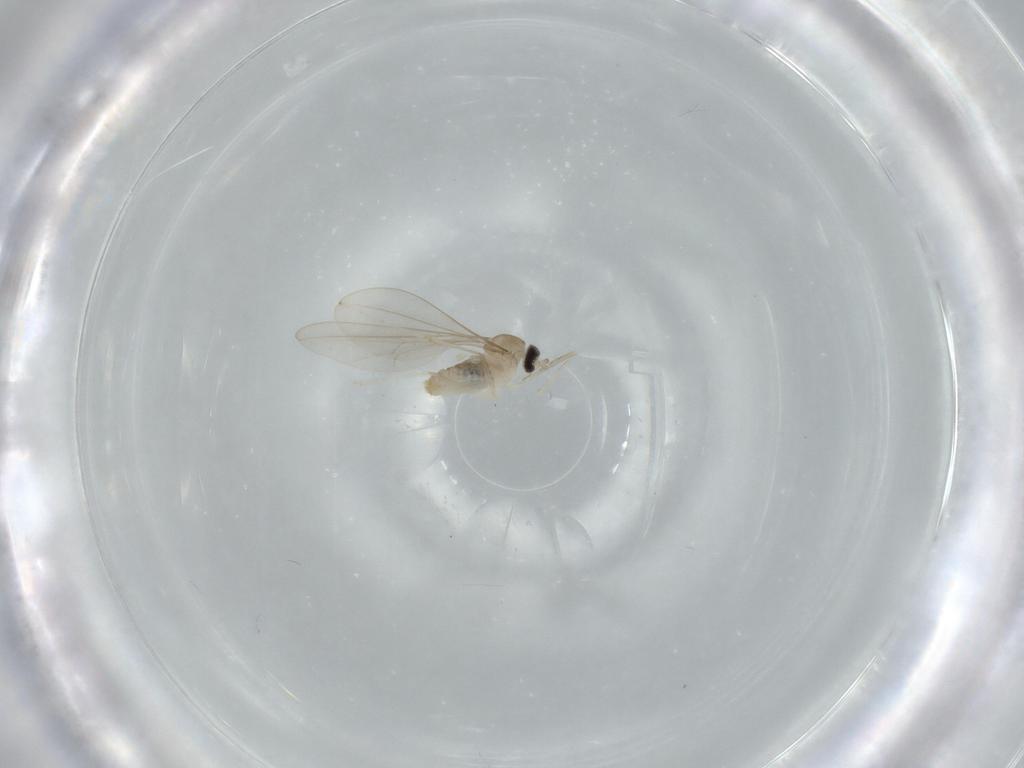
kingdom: Animalia
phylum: Arthropoda
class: Insecta
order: Diptera
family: Cecidomyiidae
